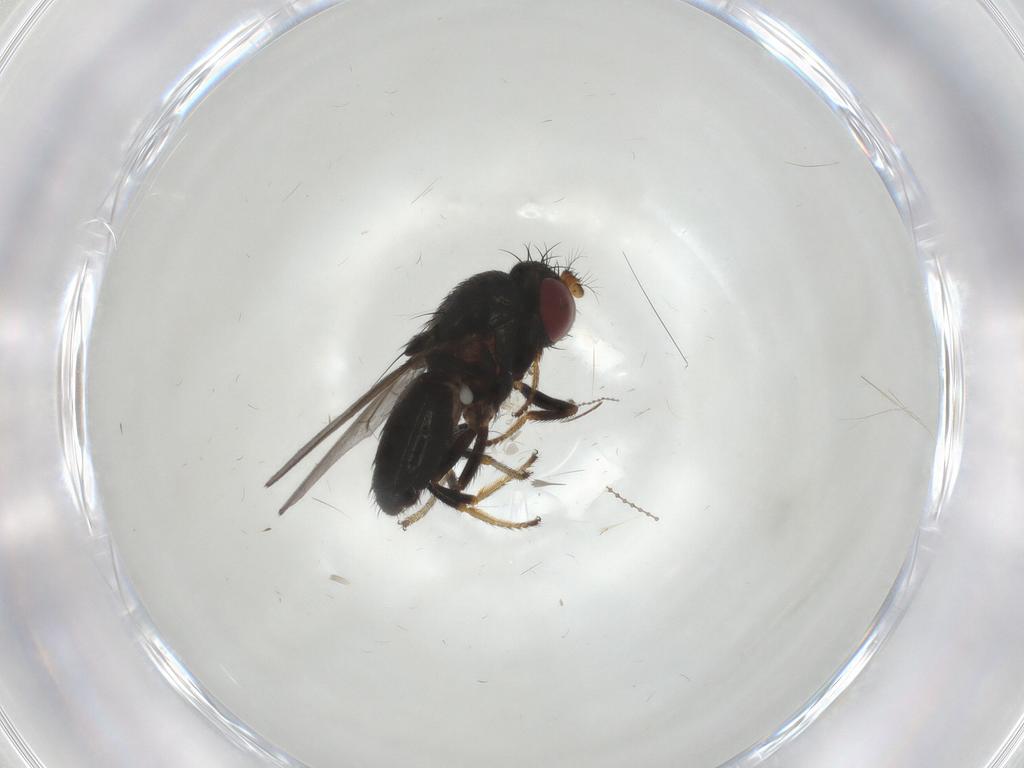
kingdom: Animalia
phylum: Arthropoda
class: Insecta
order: Diptera
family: Ephydridae
